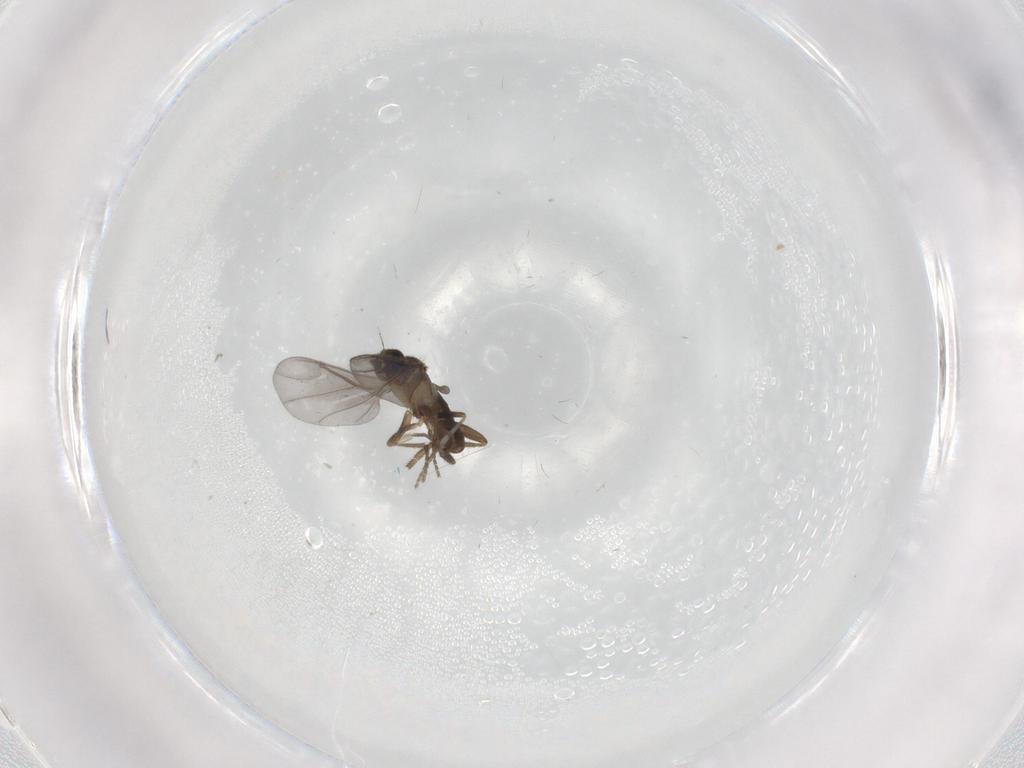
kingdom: Animalia
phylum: Arthropoda
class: Insecta
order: Diptera
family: Phoridae
